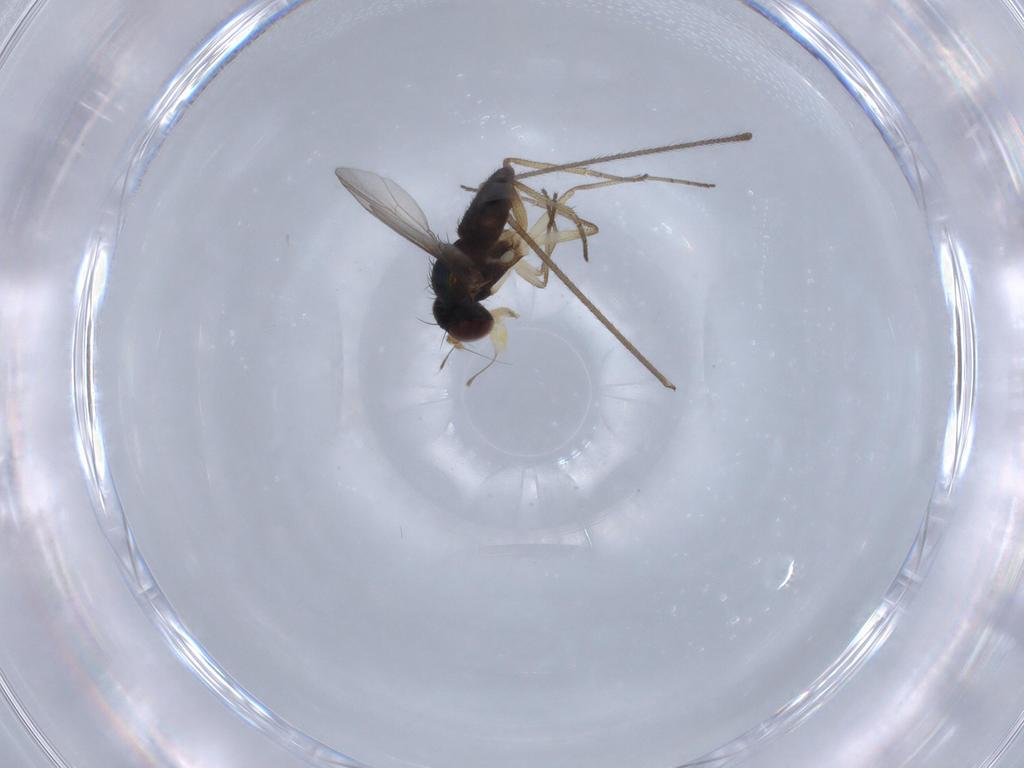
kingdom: Animalia
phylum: Arthropoda
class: Insecta
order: Diptera
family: Dolichopodidae
